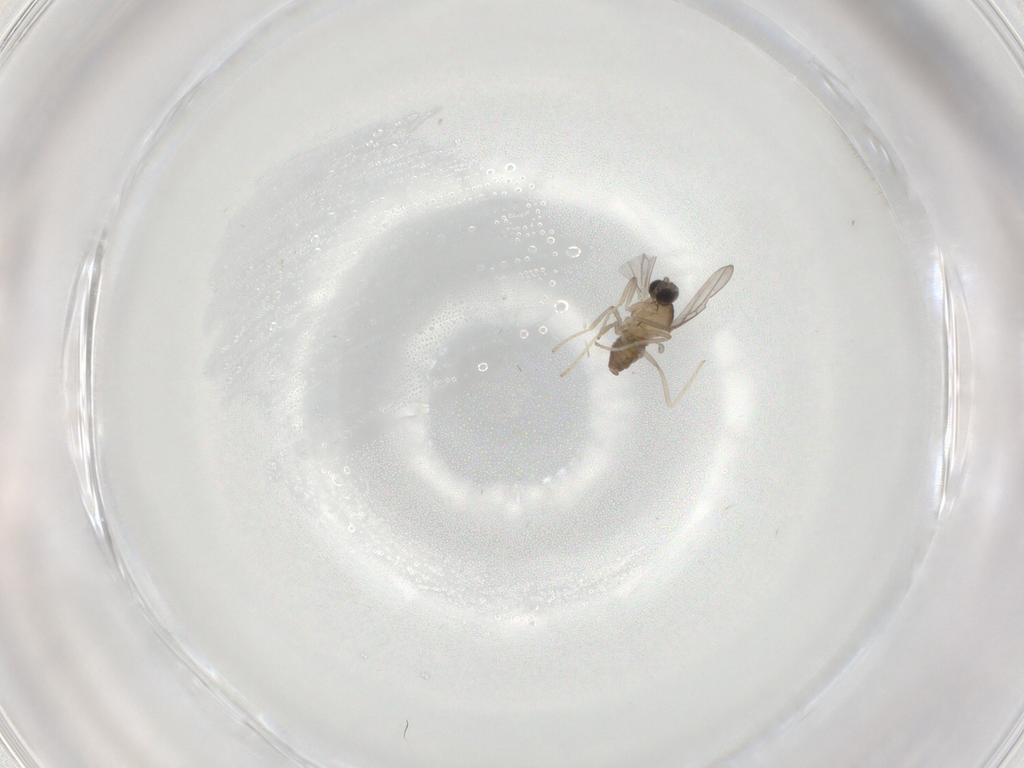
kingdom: Animalia
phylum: Arthropoda
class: Insecta
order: Diptera
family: Cecidomyiidae
